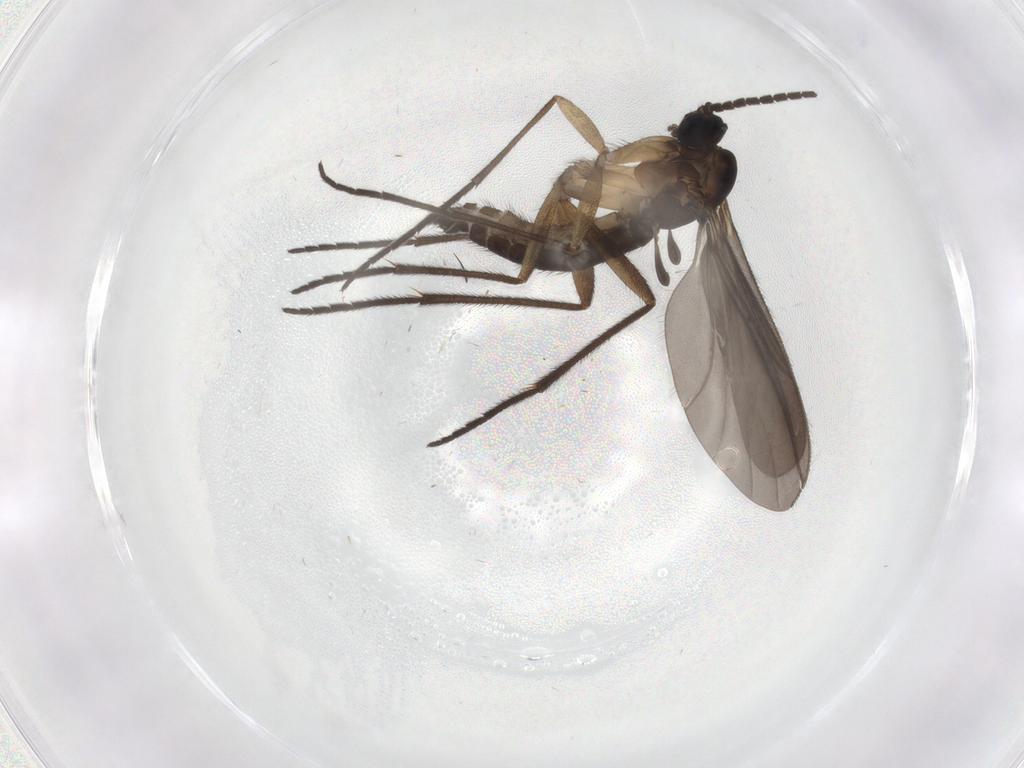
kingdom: Animalia
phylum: Arthropoda
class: Insecta
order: Diptera
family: Sciaridae
